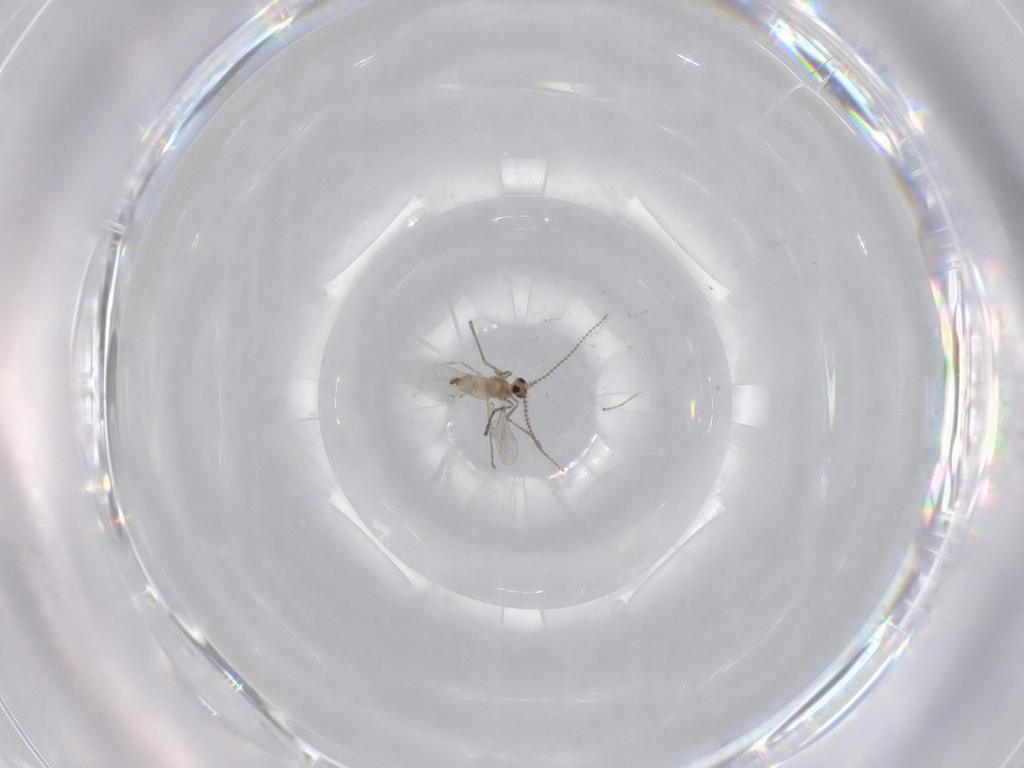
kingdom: Animalia
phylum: Arthropoda
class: Insecta
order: Diptera
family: Cecidomyiidae
